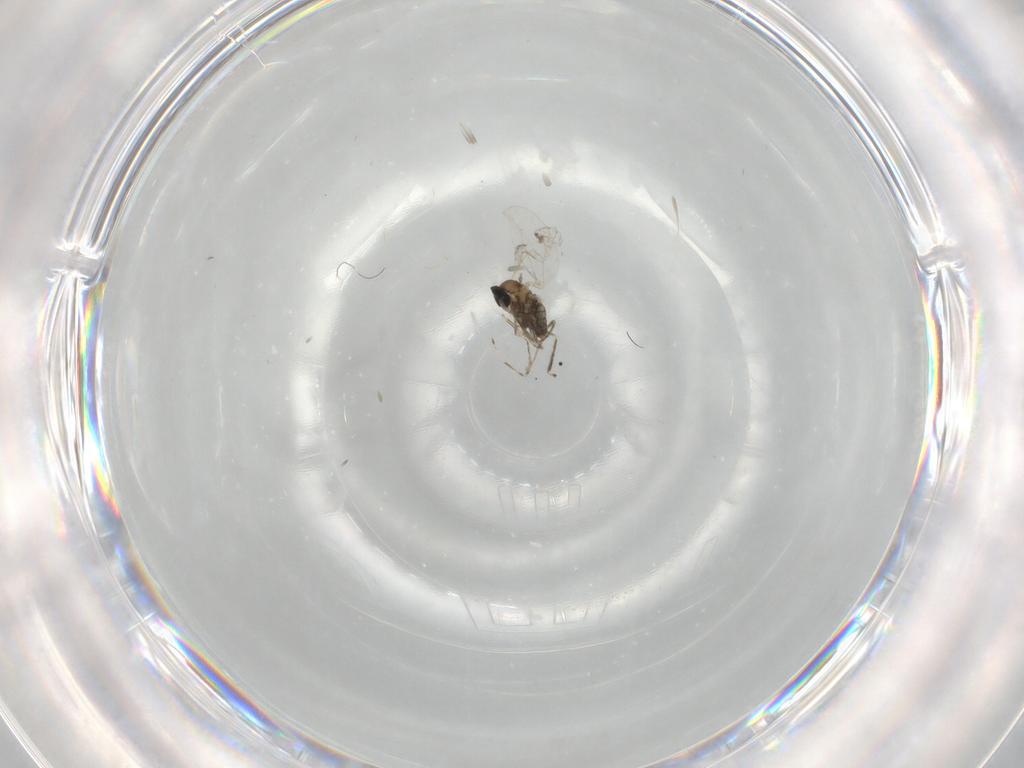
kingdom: Animalia
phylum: Arthropoda
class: Insecta
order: Diptera
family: Cecidomyiidae
